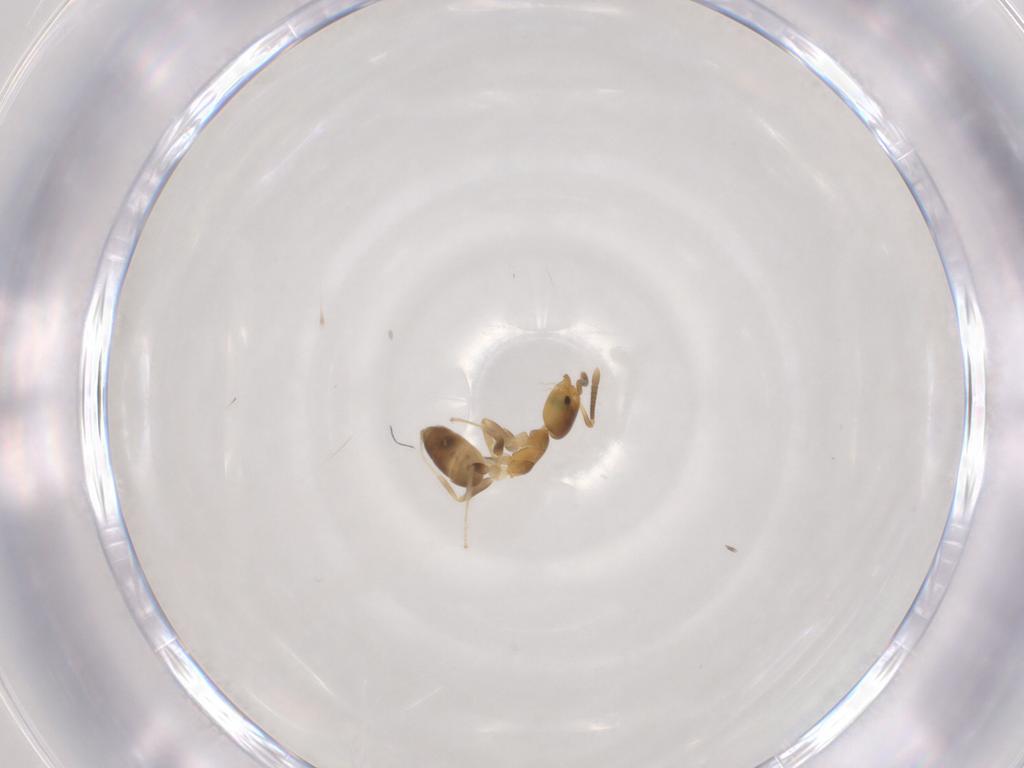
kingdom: Animalia
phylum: Arthropoda
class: Insecta
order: Hymenoptera
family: Formicidae
